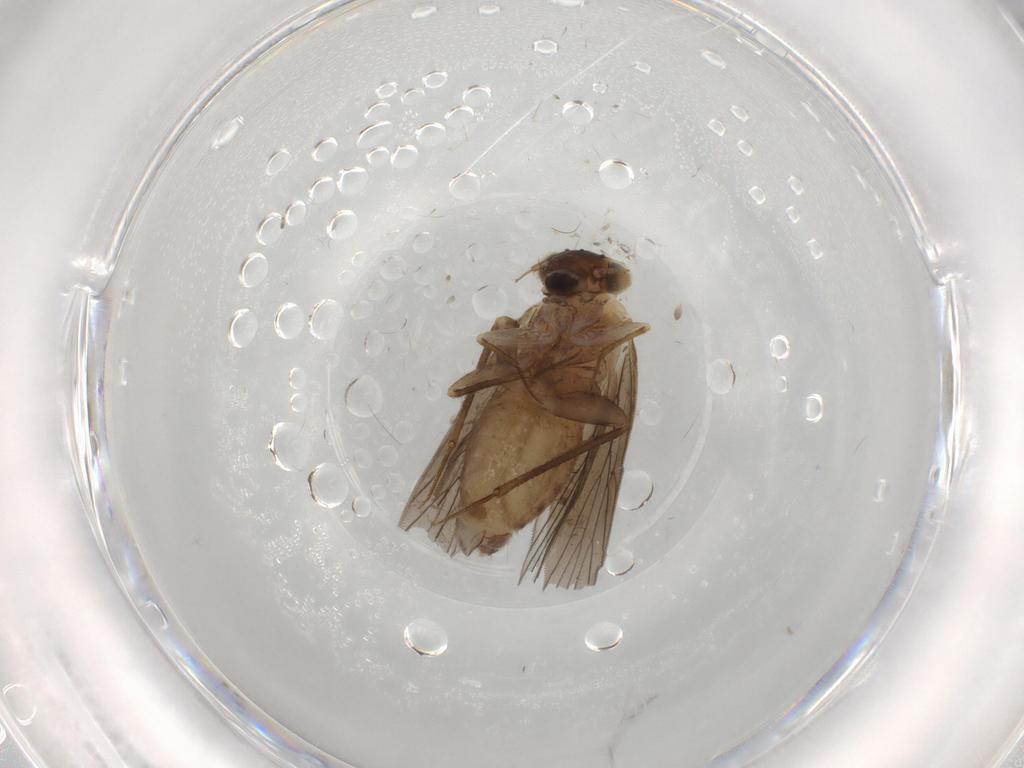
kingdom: Animalia
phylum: Arthropoda
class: Insecta
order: Psocodea
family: Lepidopsocidae
